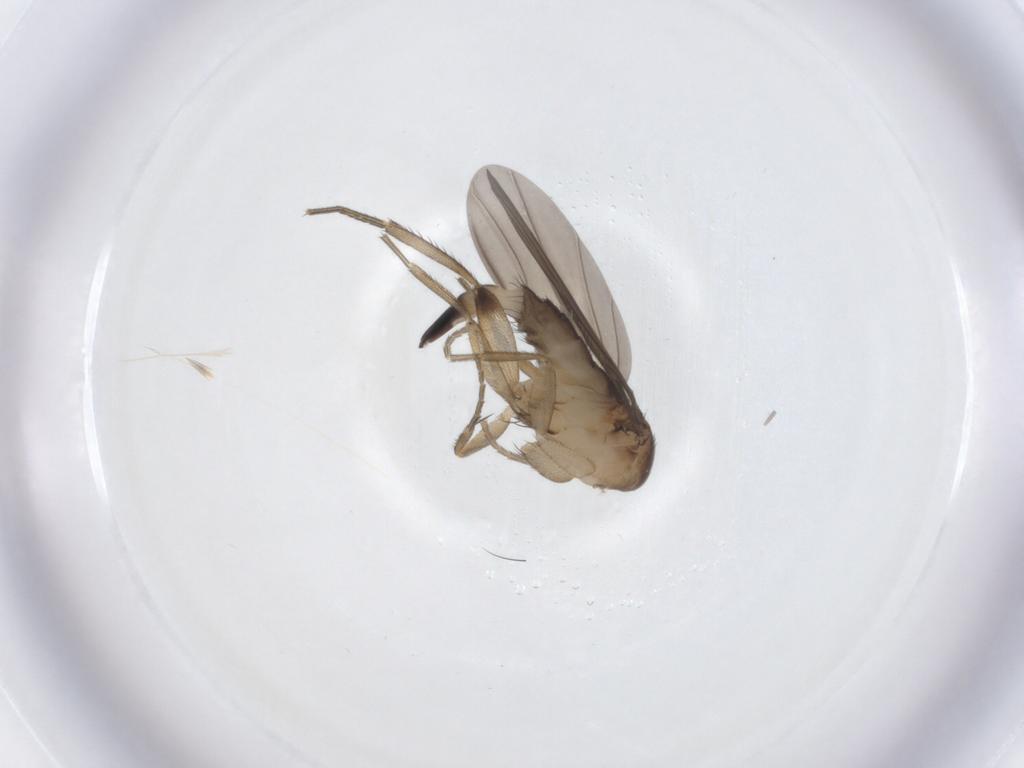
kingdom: Animalia
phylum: Arthropoda
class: Insecta
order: Diptera
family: Phoridae
